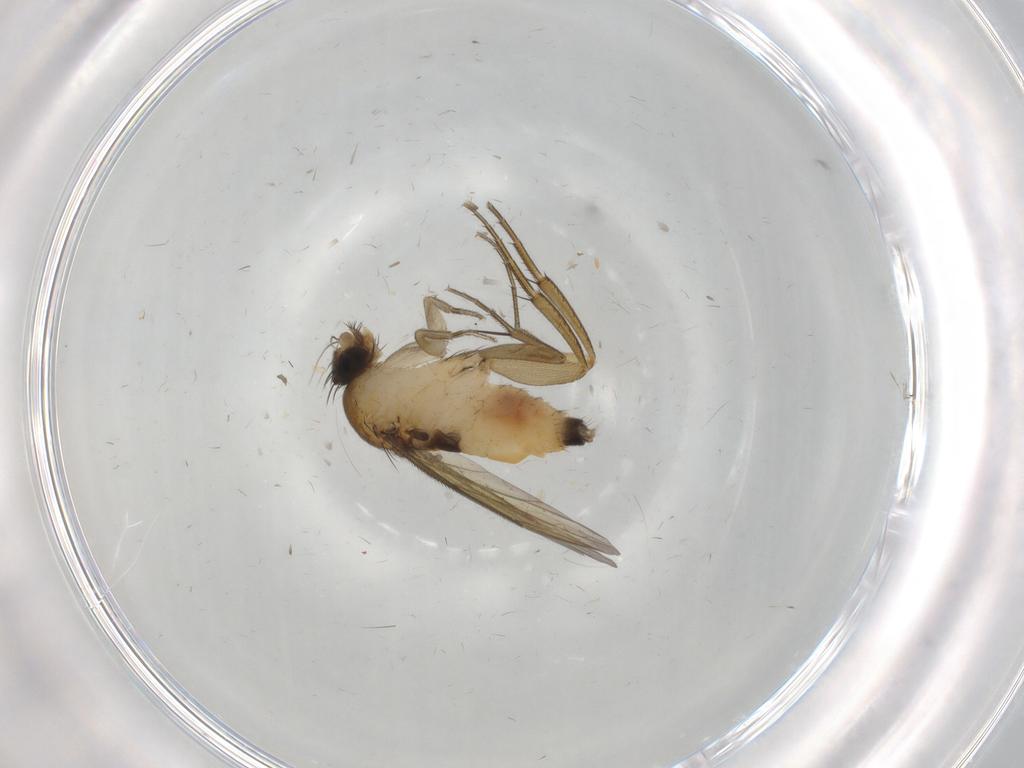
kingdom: Animalia
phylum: Arthropoda
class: Insecta
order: Diptera
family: Sciaridae
